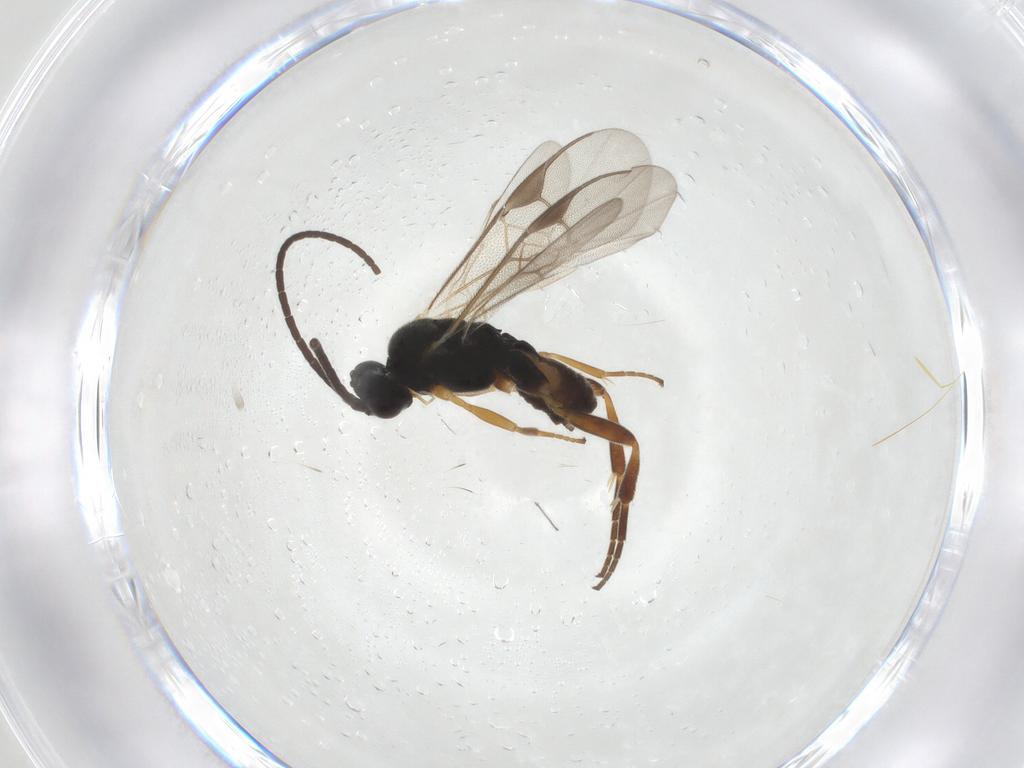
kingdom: Animalia
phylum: Arthropoda
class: Insecta
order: Hymenoptera
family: Braconidae
